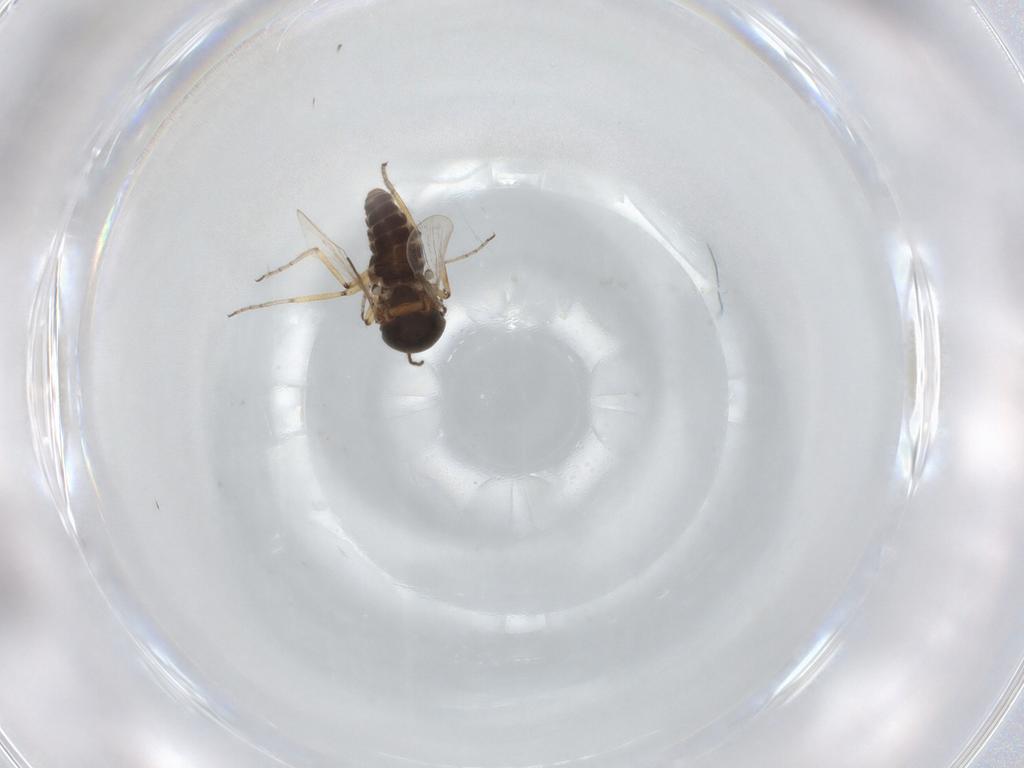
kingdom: Animalia
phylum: Arthropoda
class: Insecta
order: Diptera
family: Ceratopogonidae
